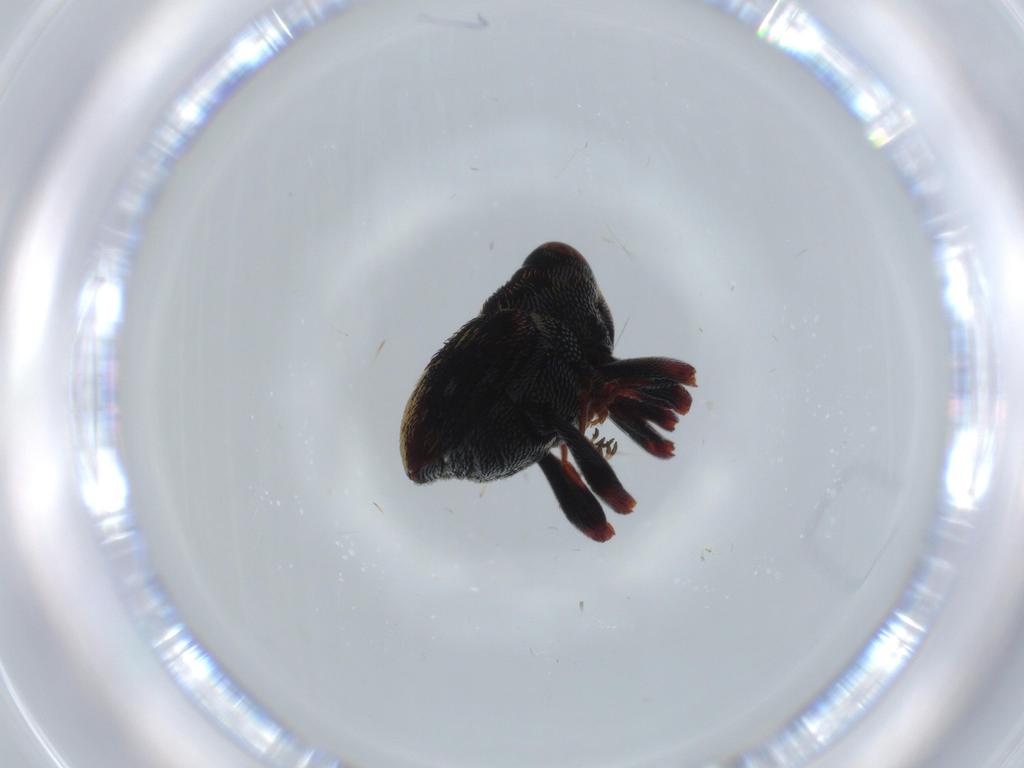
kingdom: Animalia
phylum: Arthropoda
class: Insecta
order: Coleoptera
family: Curculionidae
